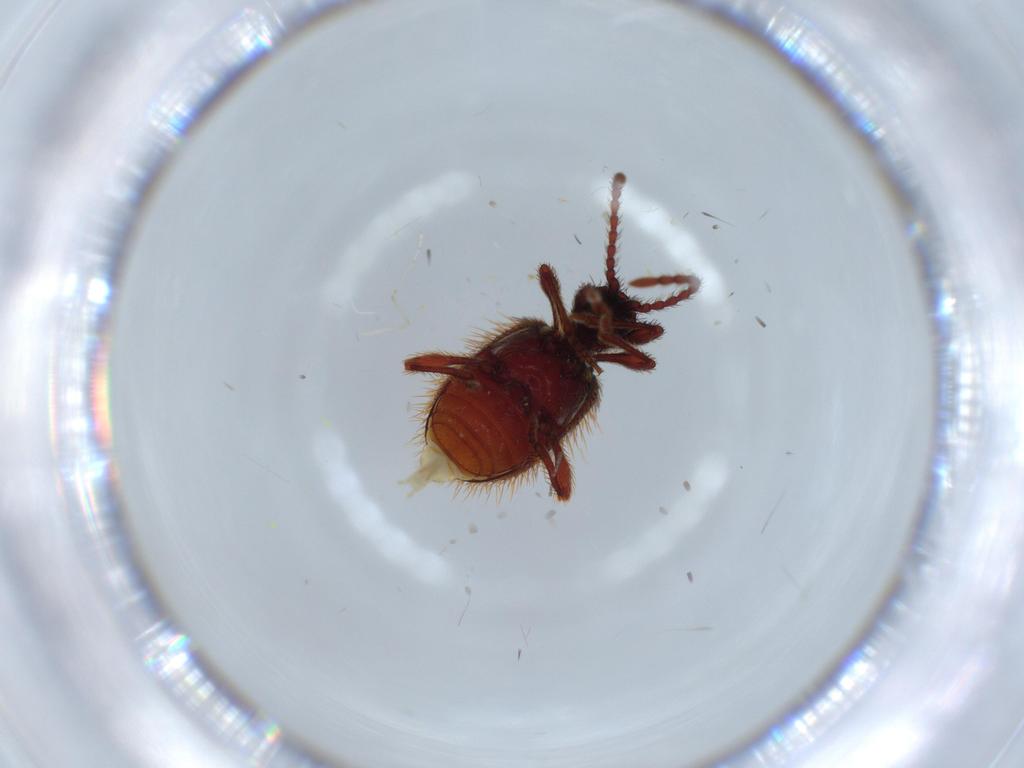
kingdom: Animalia
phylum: Arthropoda
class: Insecta
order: Coleoptera
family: Ptinidae
